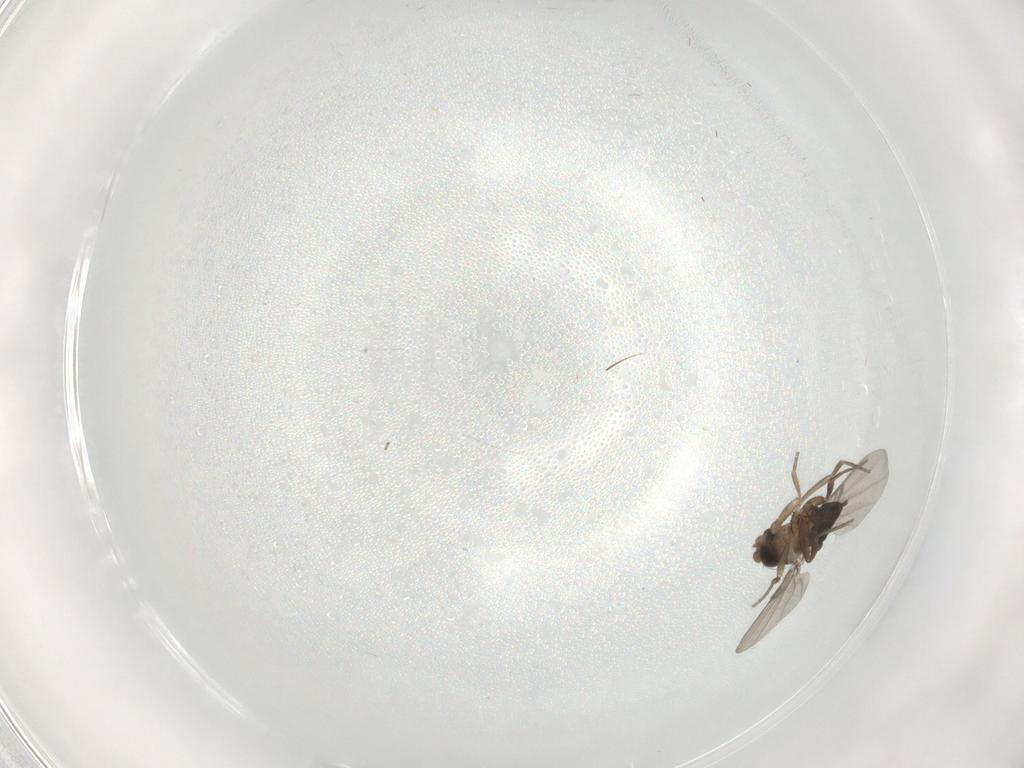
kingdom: Animalia
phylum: Arthropoda
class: Insecta
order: Diptera
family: Phoridae
